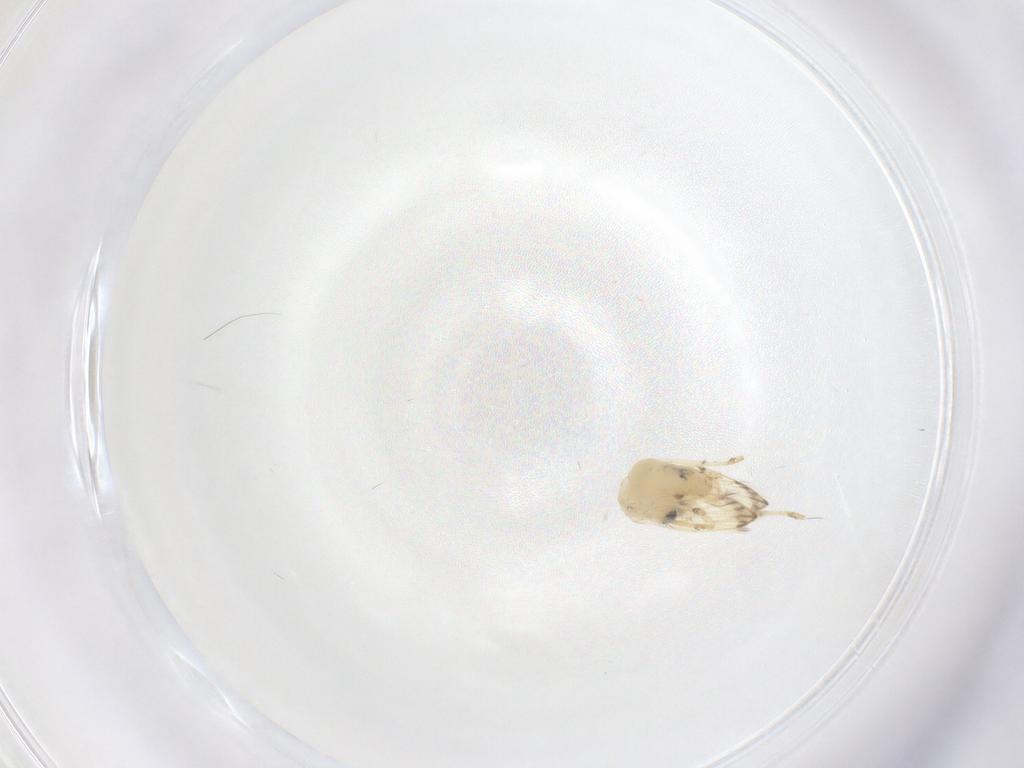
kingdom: Animalia
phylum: Arthropoda
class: Insecta
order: Diptera
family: Psychodidae
